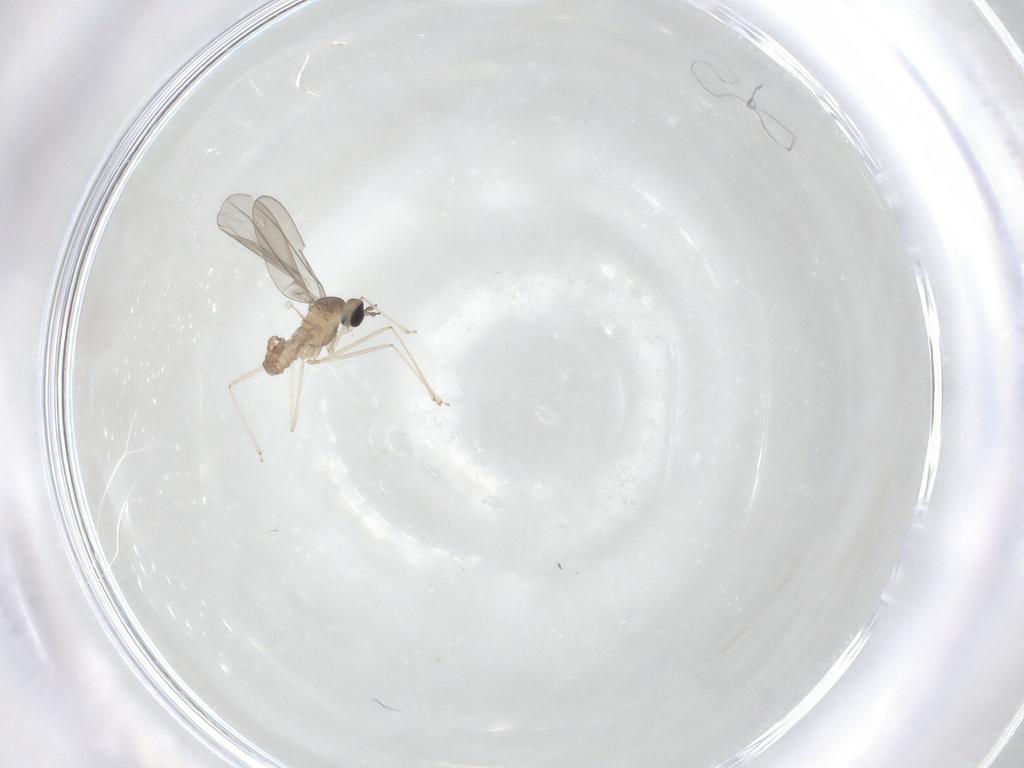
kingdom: Animalia
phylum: Arthropoda
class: Insecta
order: Diptera
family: Cecidomyiidae
